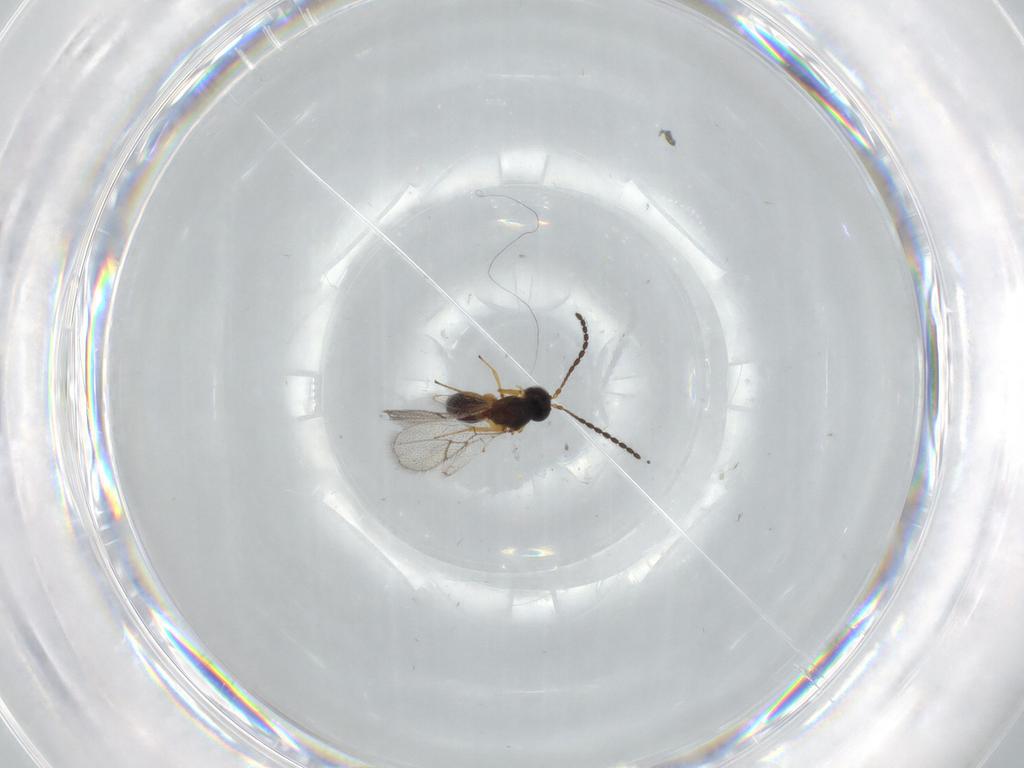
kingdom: Animalia
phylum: Arthropoda
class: Insecta
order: Hymenoptera
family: Figitidae
